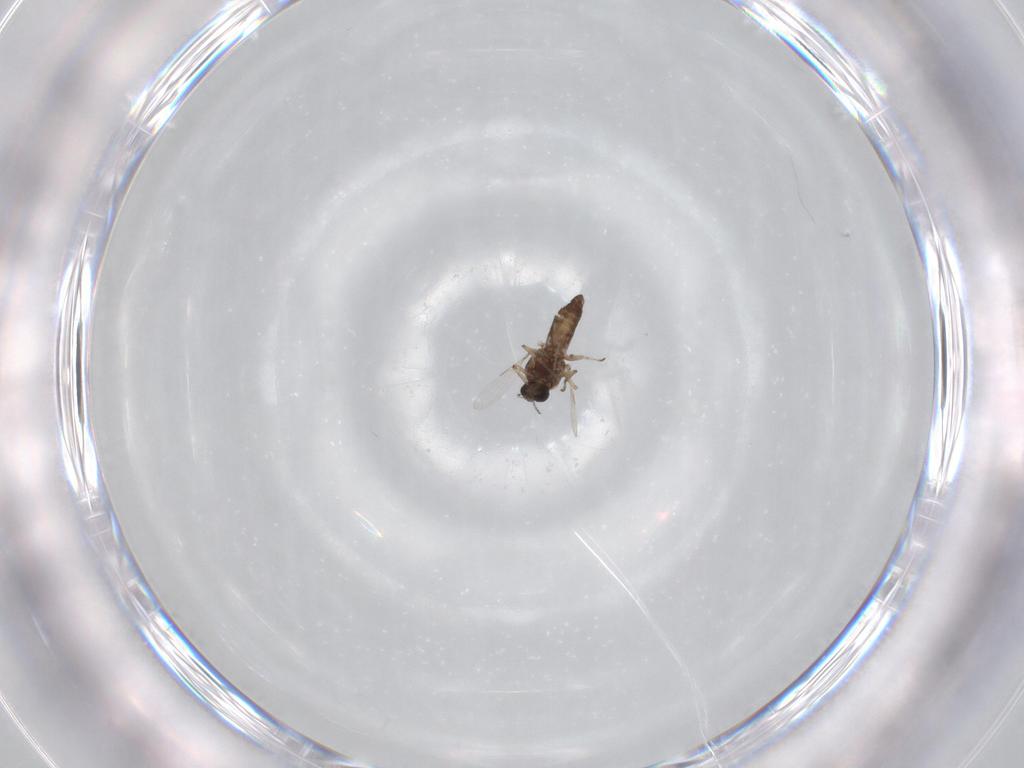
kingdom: Animalia
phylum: Arthropoda
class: Insecta
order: Diptera
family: Ceratopogonidae
